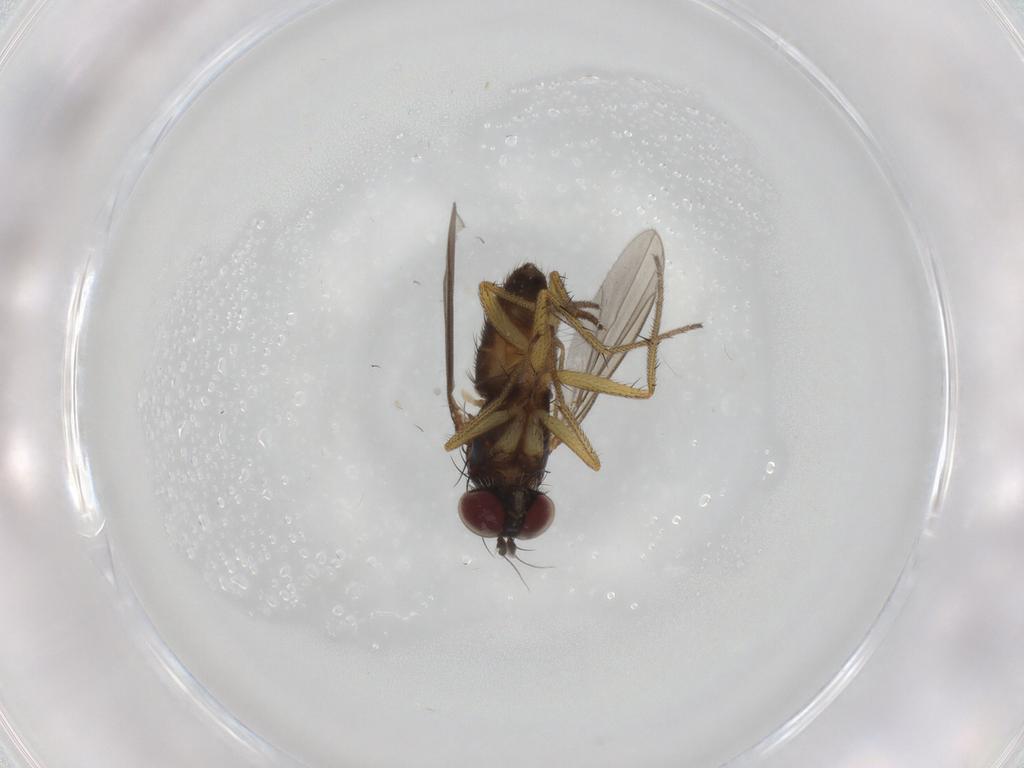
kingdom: Animalia
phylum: Arthropoda
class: Insecta
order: Diptera
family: Dolichopodidae
